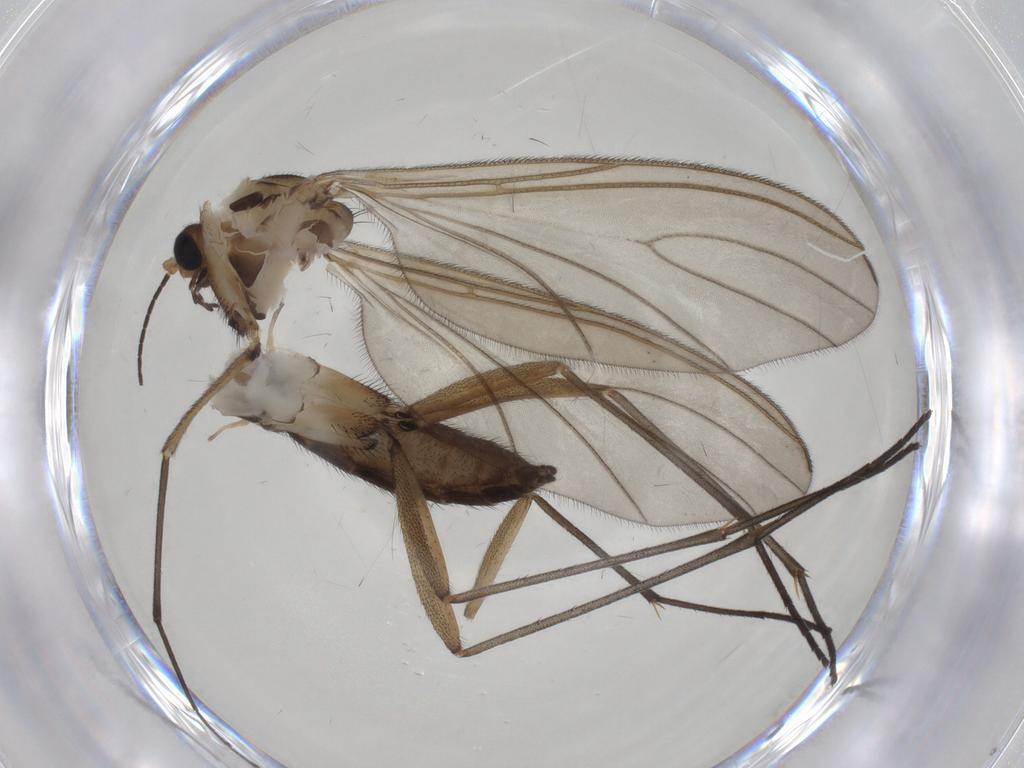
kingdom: Animalia
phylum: Arthropoda
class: Insecta
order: Diptera
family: Sciaridae
